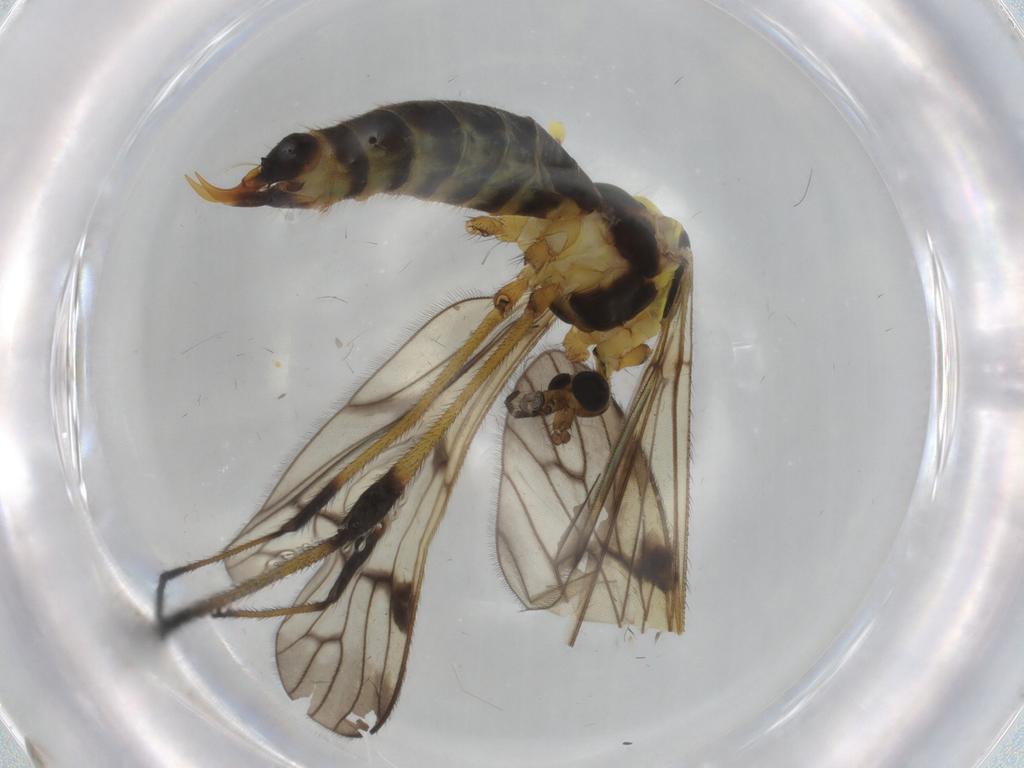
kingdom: Animalia
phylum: Arthropoda
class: Insecta
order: Diptera
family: Limoniidae
